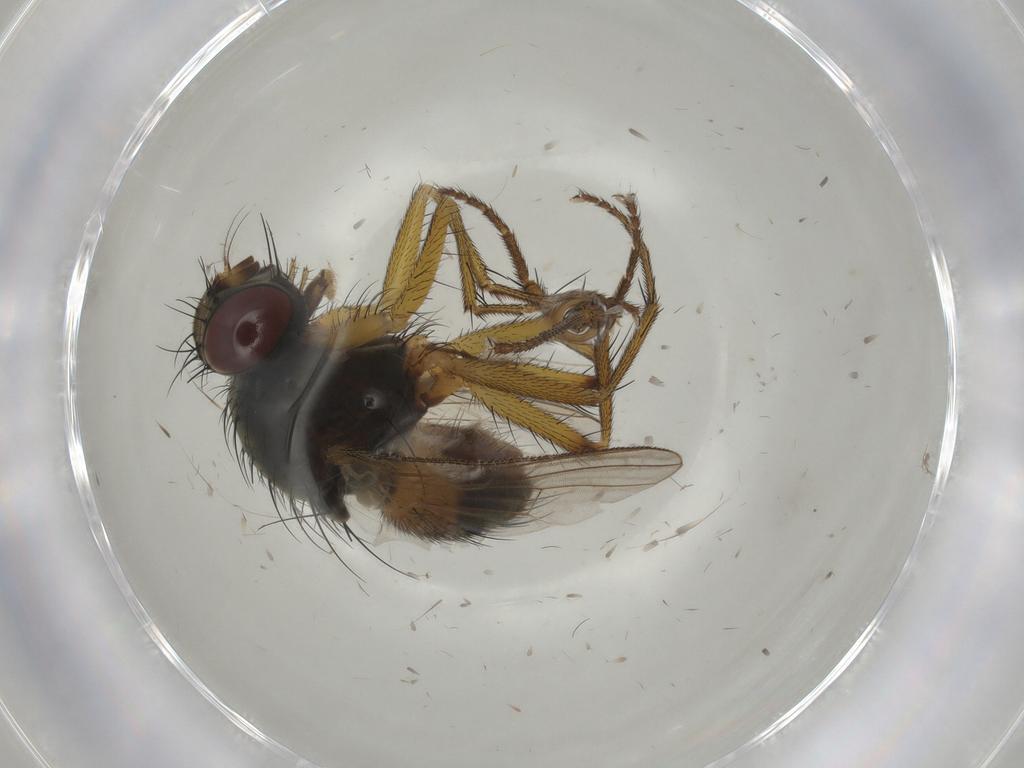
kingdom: Animalia
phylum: Arthropoda
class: Insecta
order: Diptera
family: Muscidae
